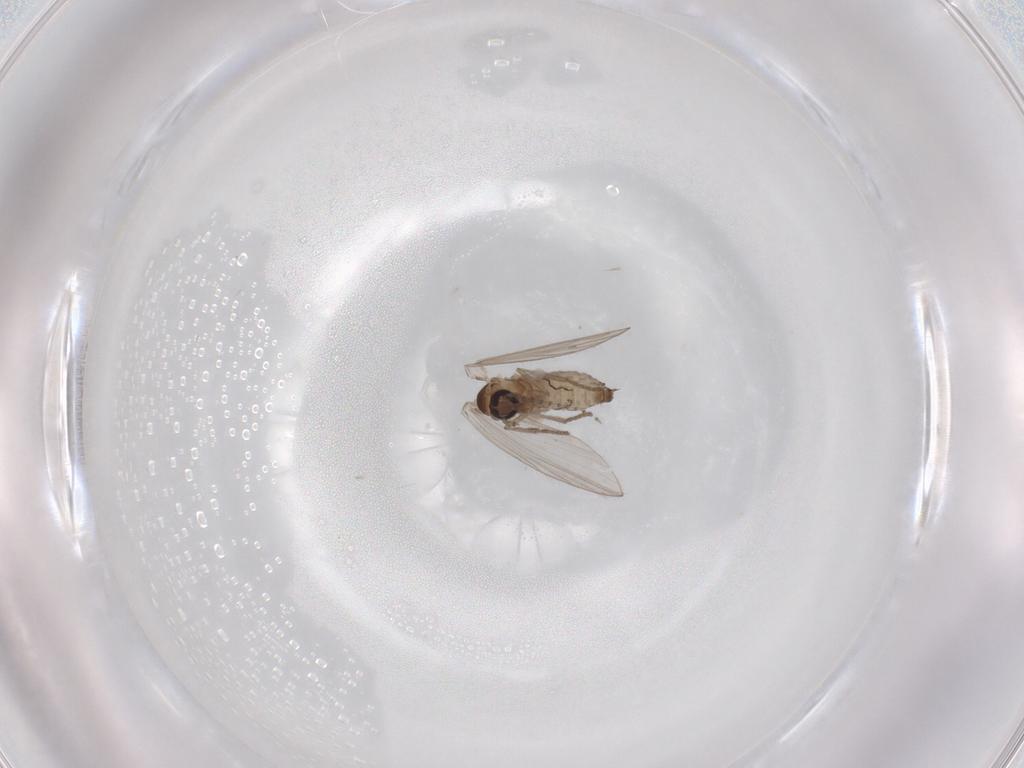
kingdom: Animalia
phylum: Arthropoda
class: Insecta
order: Diptera
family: Psychodidae
